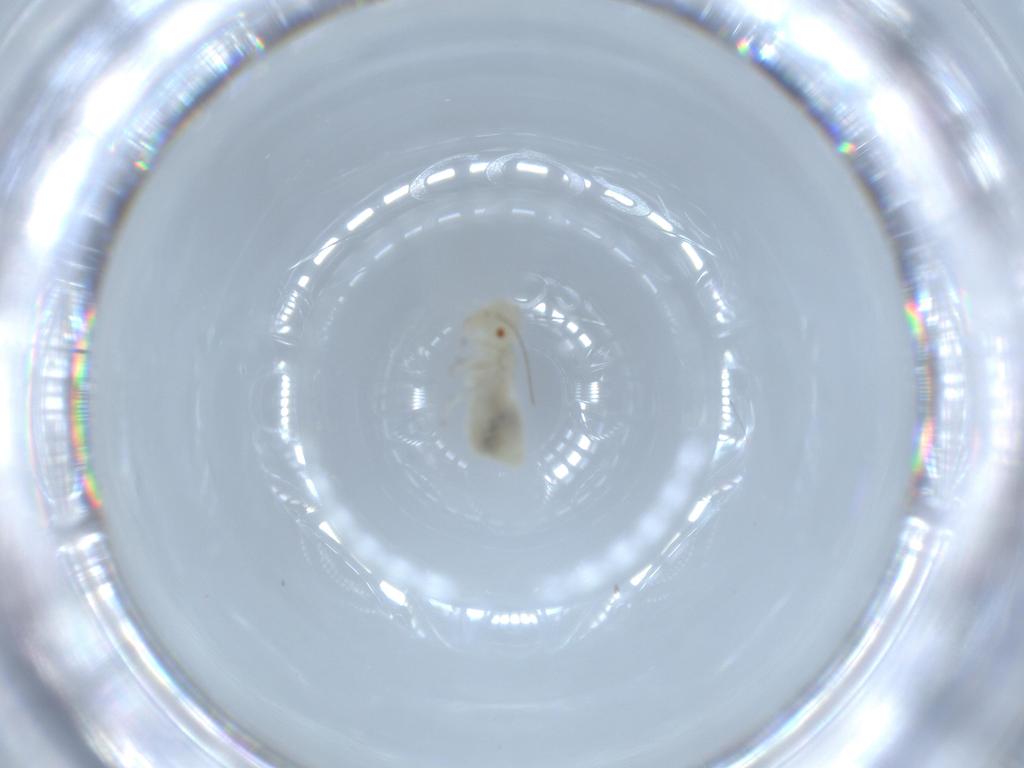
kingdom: Animalia
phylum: Arthropoda
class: Insecta
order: Psocodea
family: Caeciliusidae
